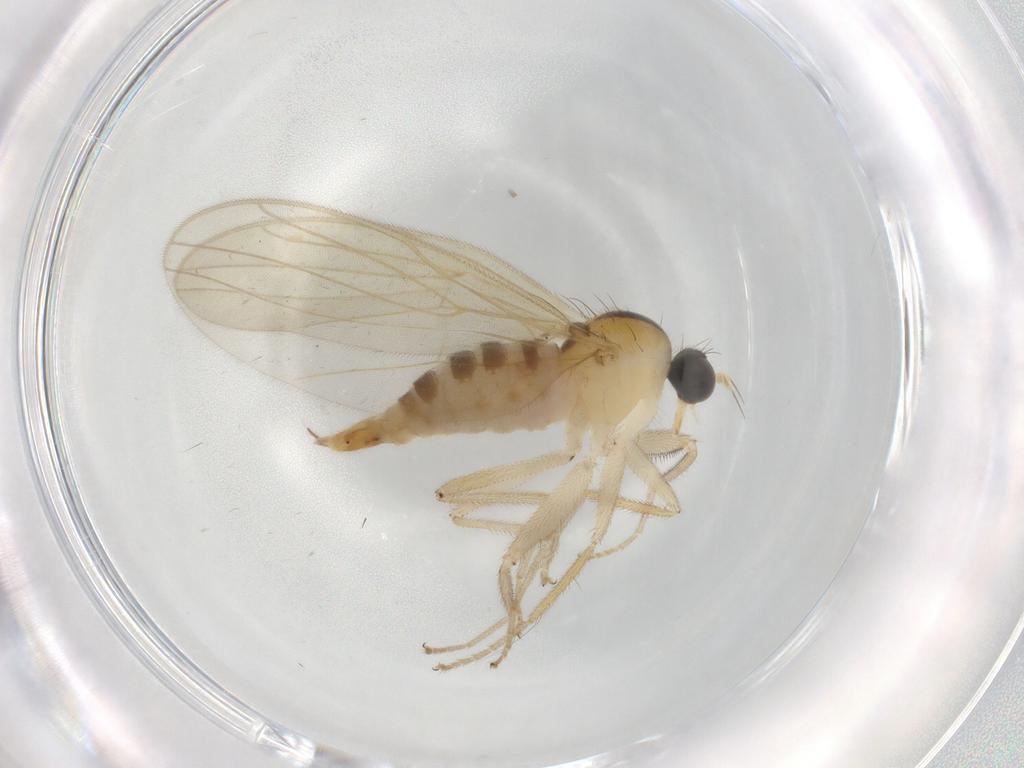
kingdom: Animalia
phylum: Arthropoda
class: Insecta
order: Diptera
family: Hybotidae
